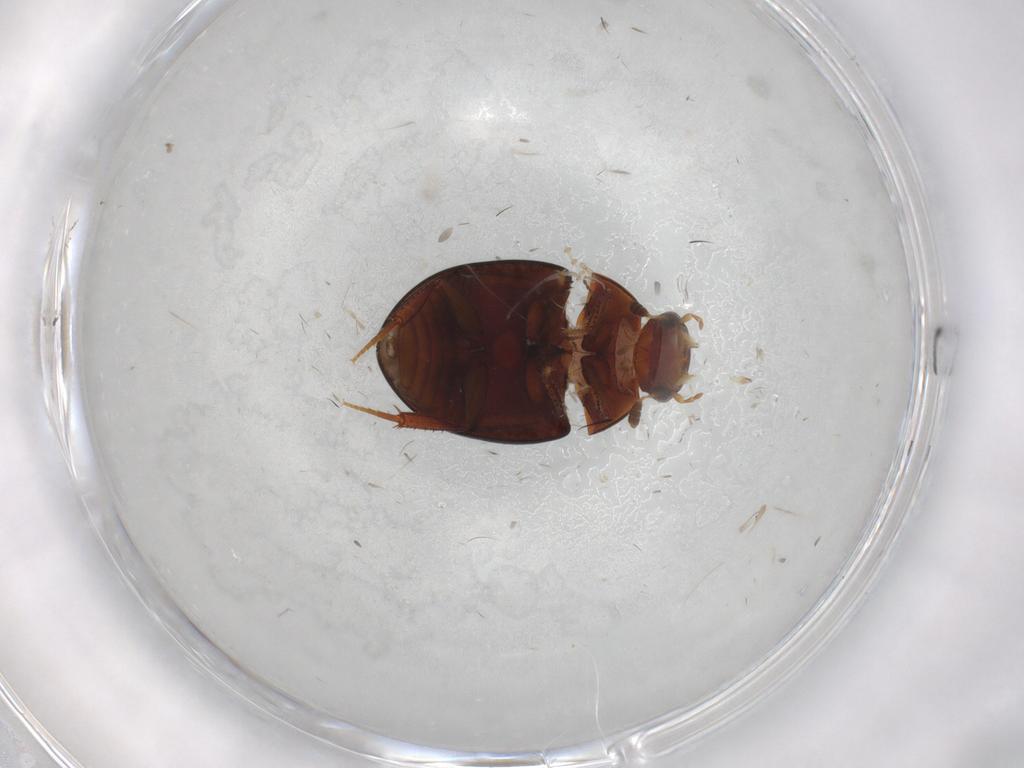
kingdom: Animalia
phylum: Arthropoda
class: Insecta
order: Coleoptera
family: Hydrophilidae
